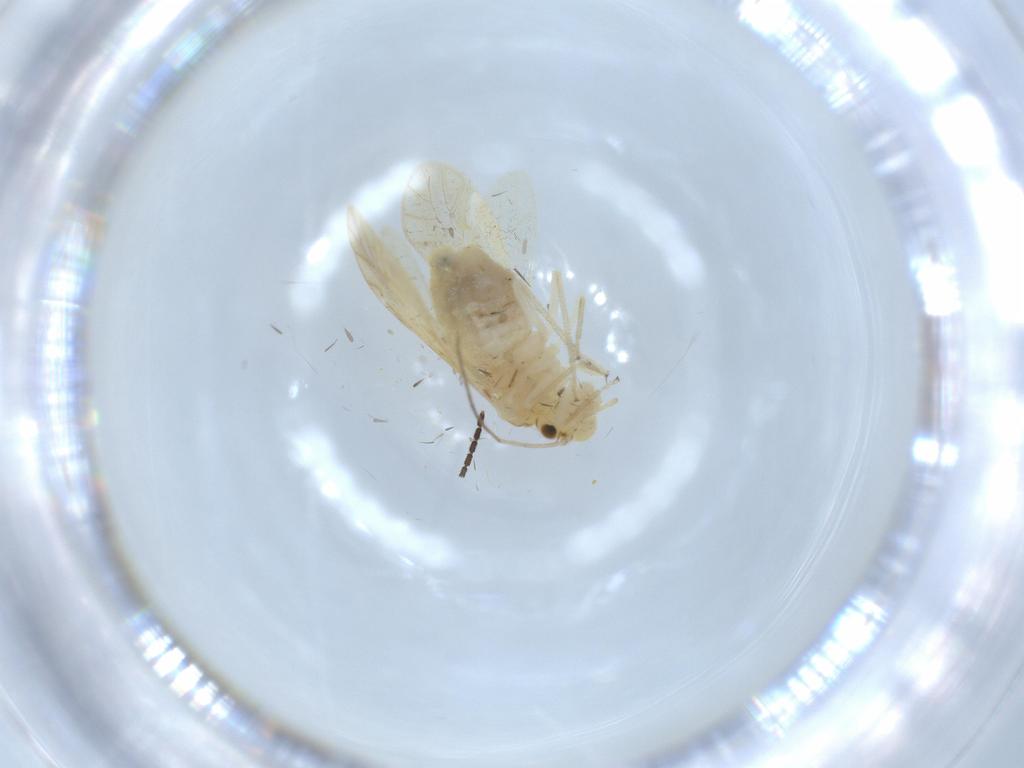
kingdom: Animalia
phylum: Arthropoda
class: Insecta
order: Psocodea
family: Caeciliusidae
